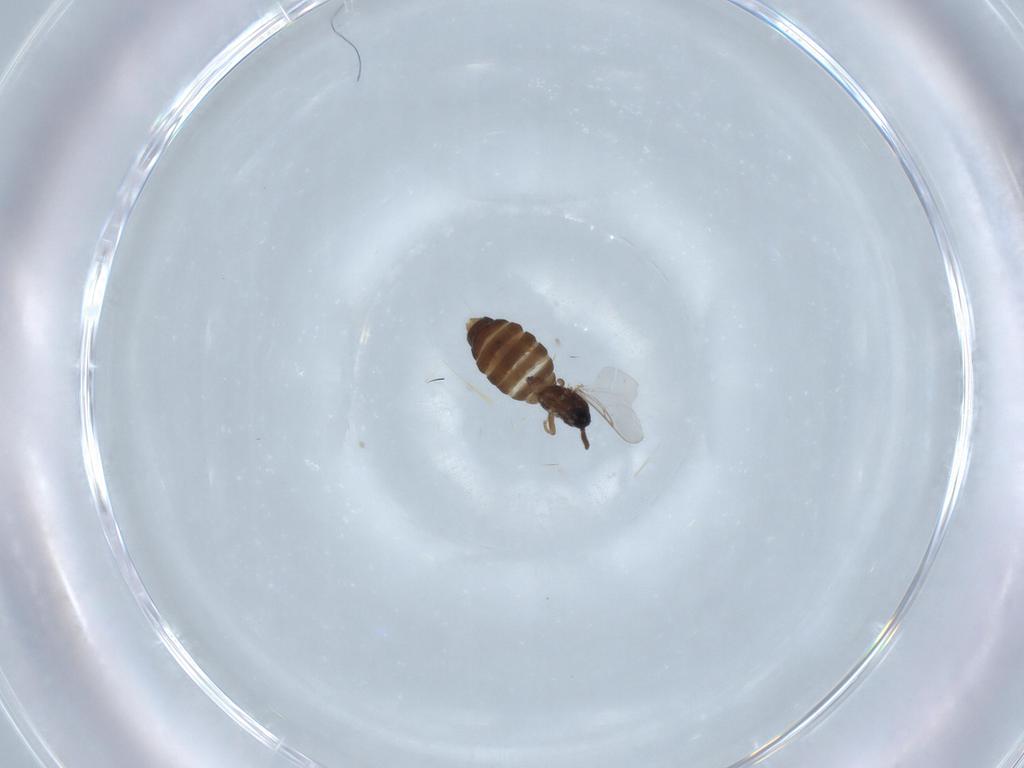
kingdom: Animalia
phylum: Arthropoda
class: Insecta
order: Diptera
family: Scatopsidae
